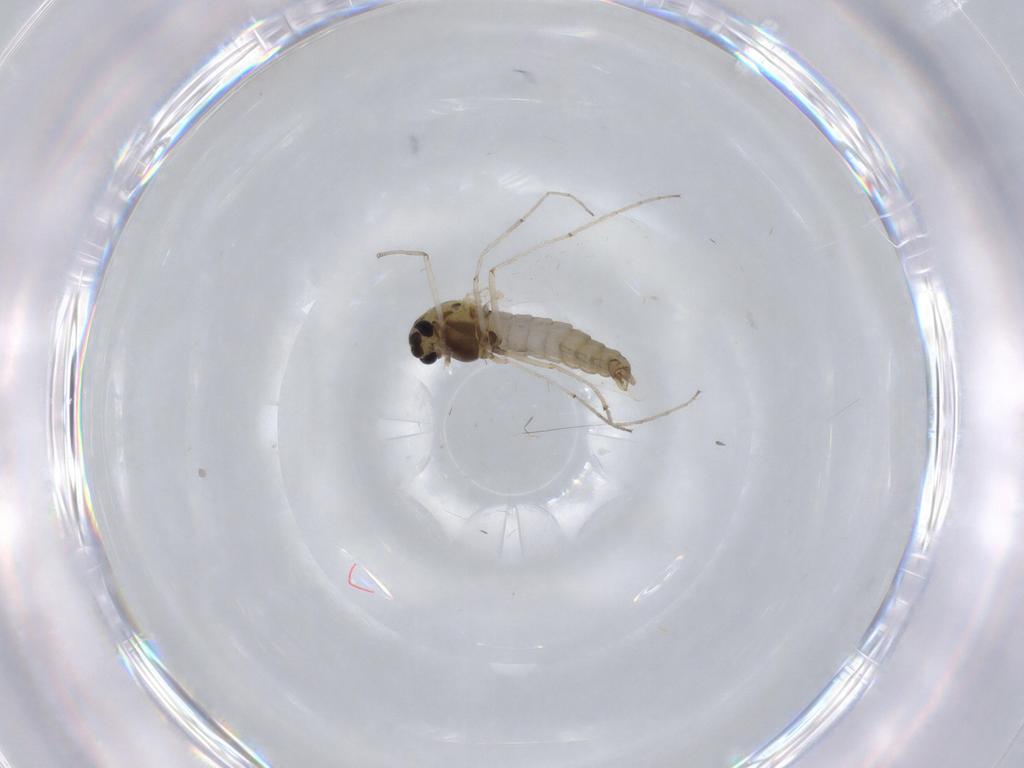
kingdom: Animalia
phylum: Arthropoda
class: Insecta
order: Diptera
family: Chironomidae
